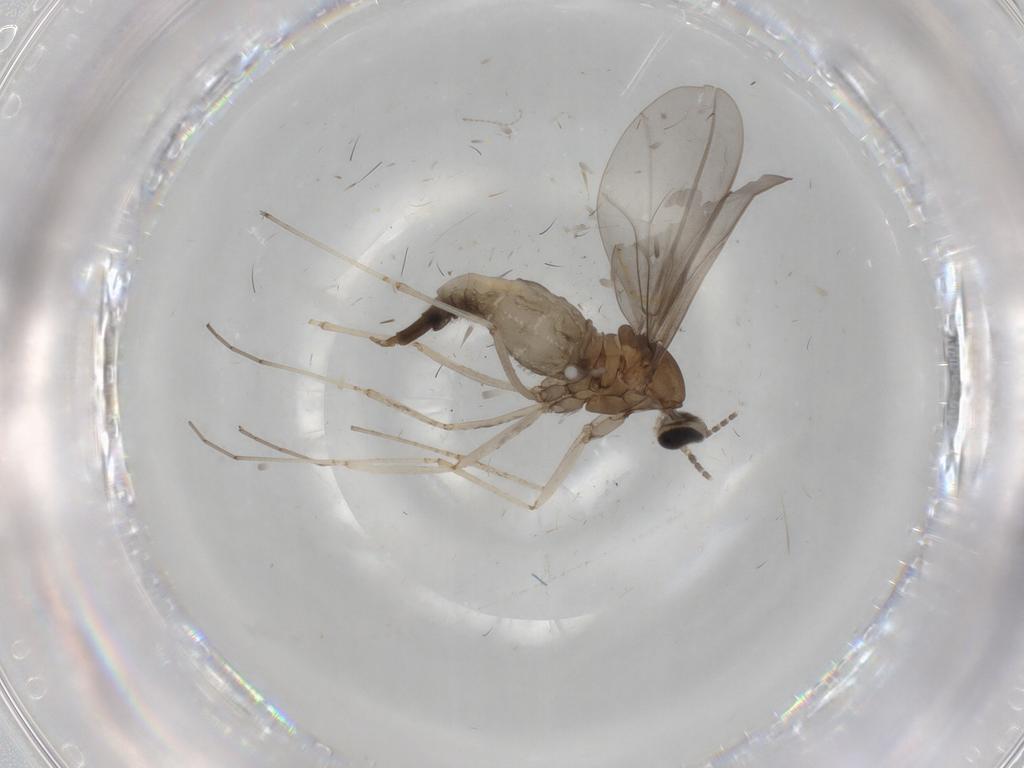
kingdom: Animalia
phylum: Arthropoda
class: Insecta
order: Diptera
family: Cecidomyiidae
